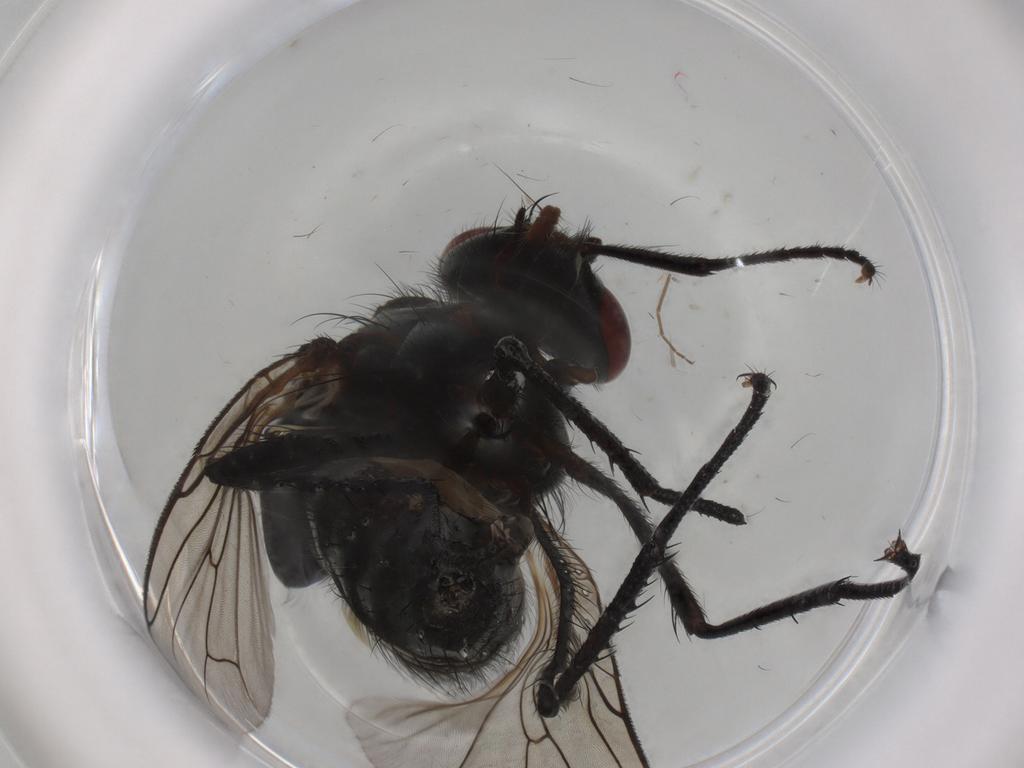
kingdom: Animalia
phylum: Arthropoda
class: Insecta
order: Diptera
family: Anthomyiidae
